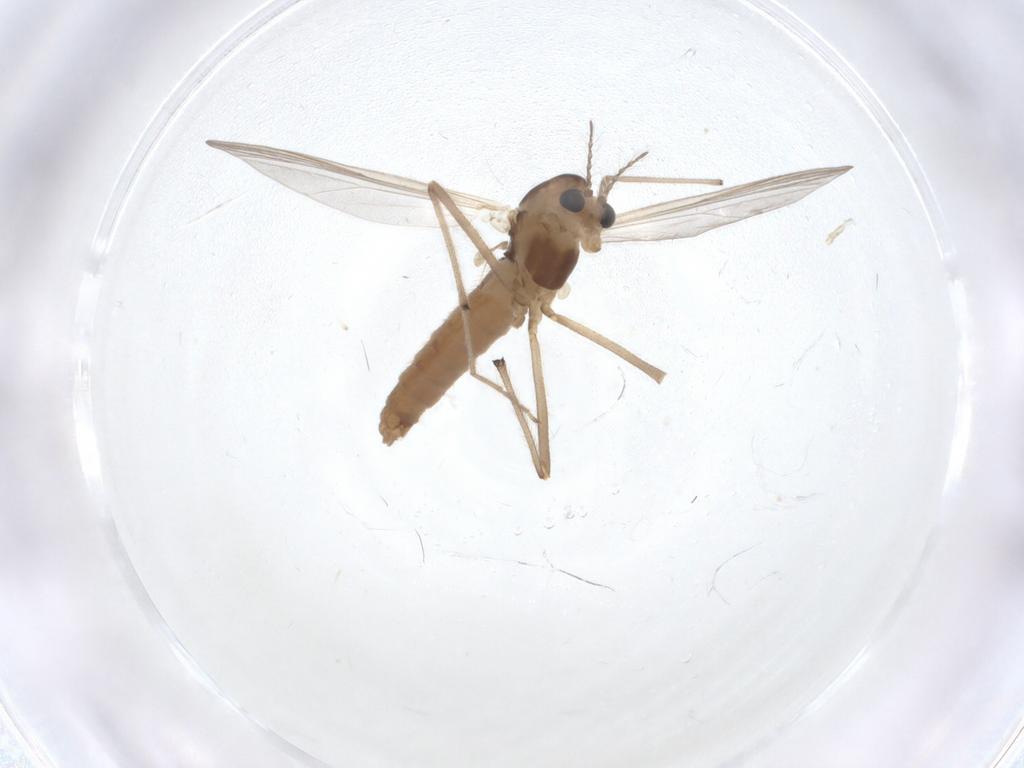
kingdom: Animalia
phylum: Arthropoda
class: Insecta
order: Diptera
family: Chironomidae
